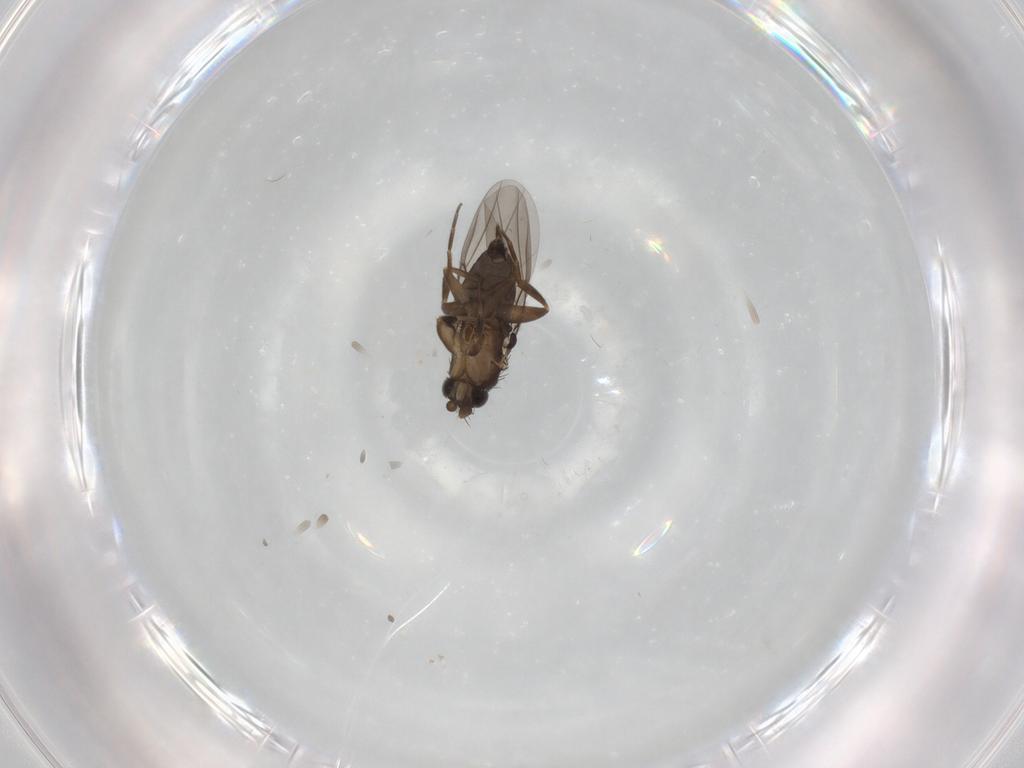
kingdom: Animalia
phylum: Arthropoda
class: Insecta
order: Diptera
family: Phoridae
